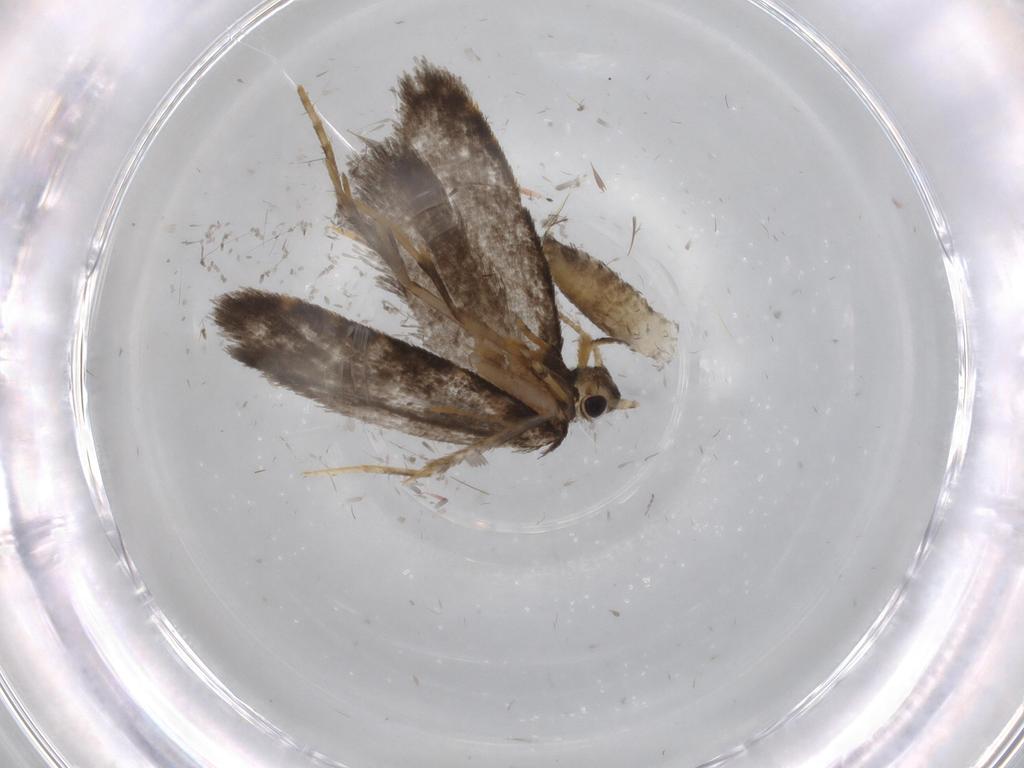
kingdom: Animalia
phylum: Arthropoda
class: Insecta
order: Lepidoptera
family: Psychidae
